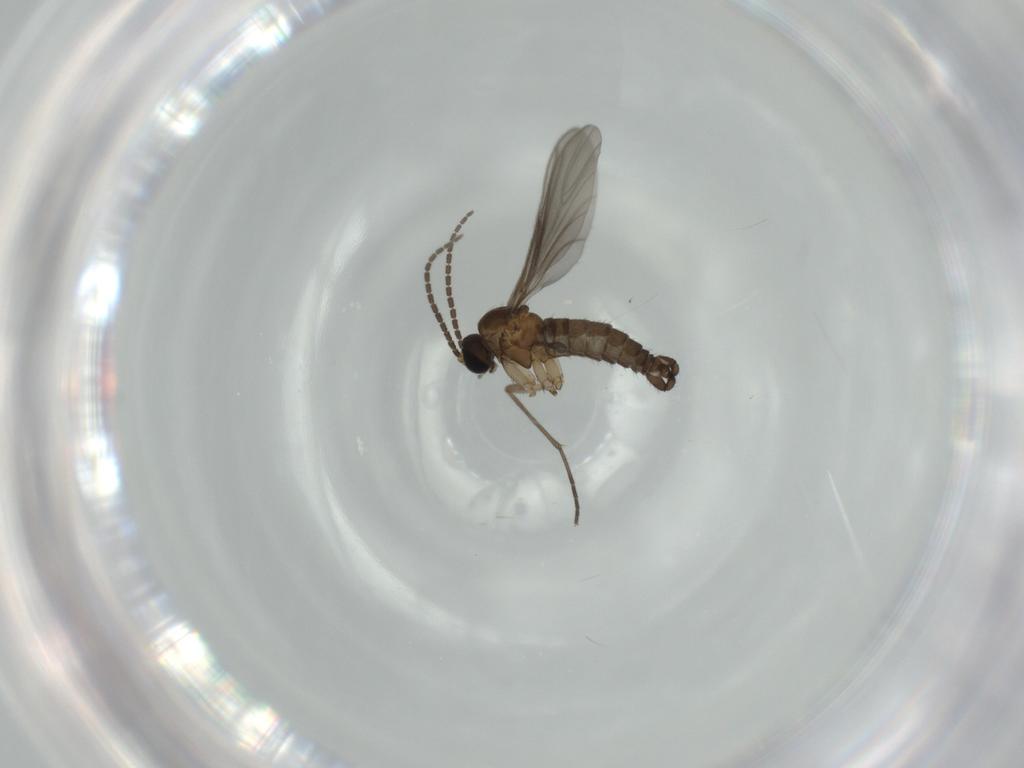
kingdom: Animalia
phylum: Arthropoda
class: Insecta
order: Diptera
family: Sciaridae
